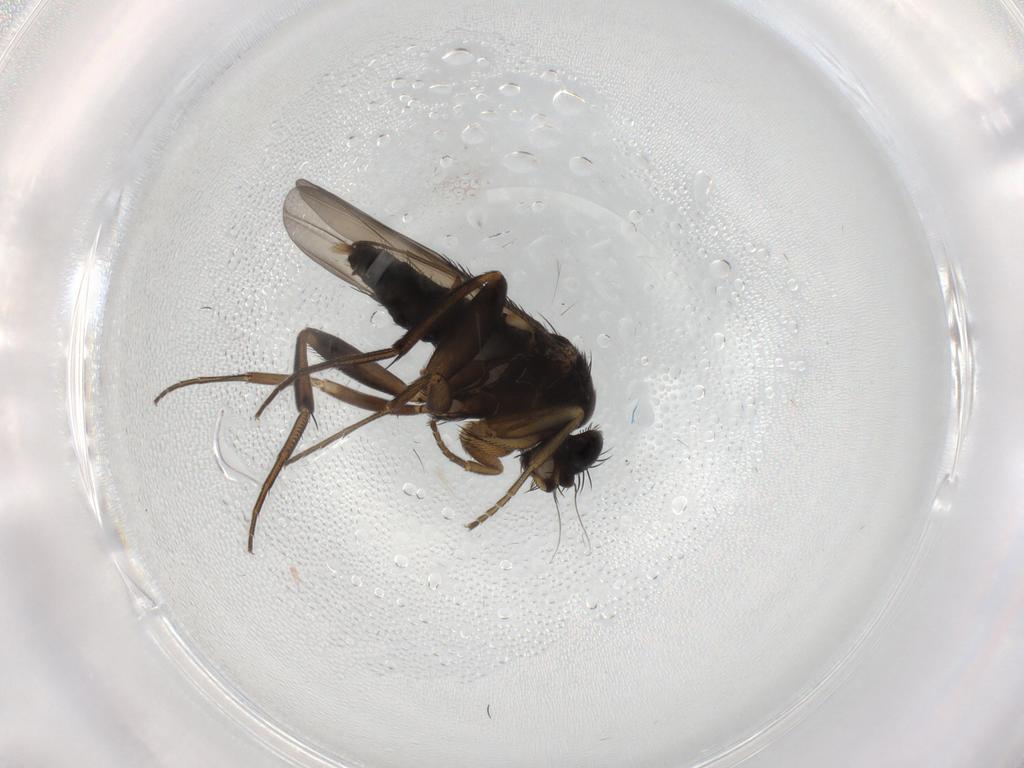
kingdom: Animalia
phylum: Arthropoda
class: Insecta
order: Diptera
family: Phoridae
